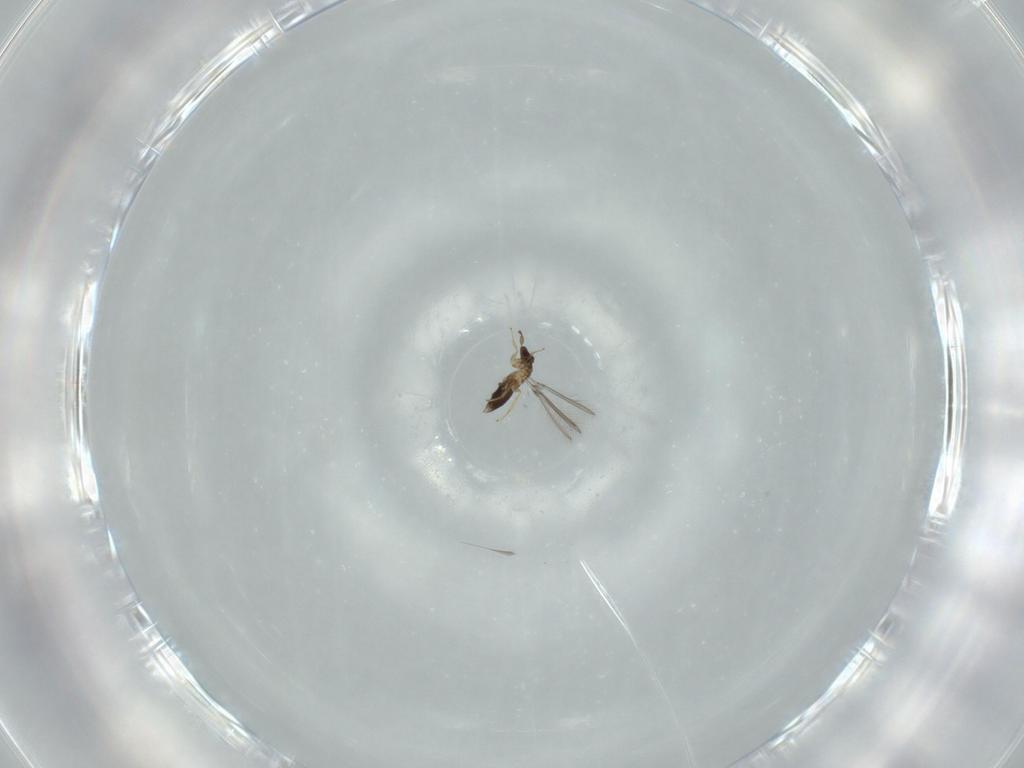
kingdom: Animalia
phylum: Arthropoda
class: Insecta
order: Hymenoptera
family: Mymaridae
